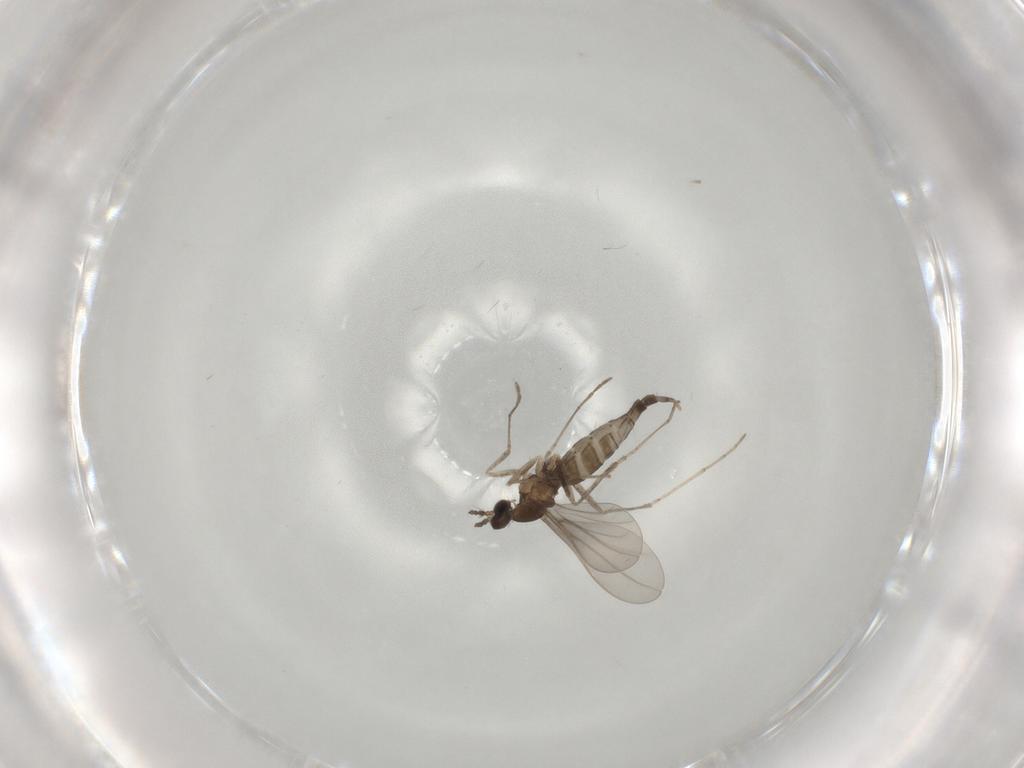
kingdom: Animalia
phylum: Arthropoda
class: Insecta
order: Diptera
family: Cecidomyiidae
